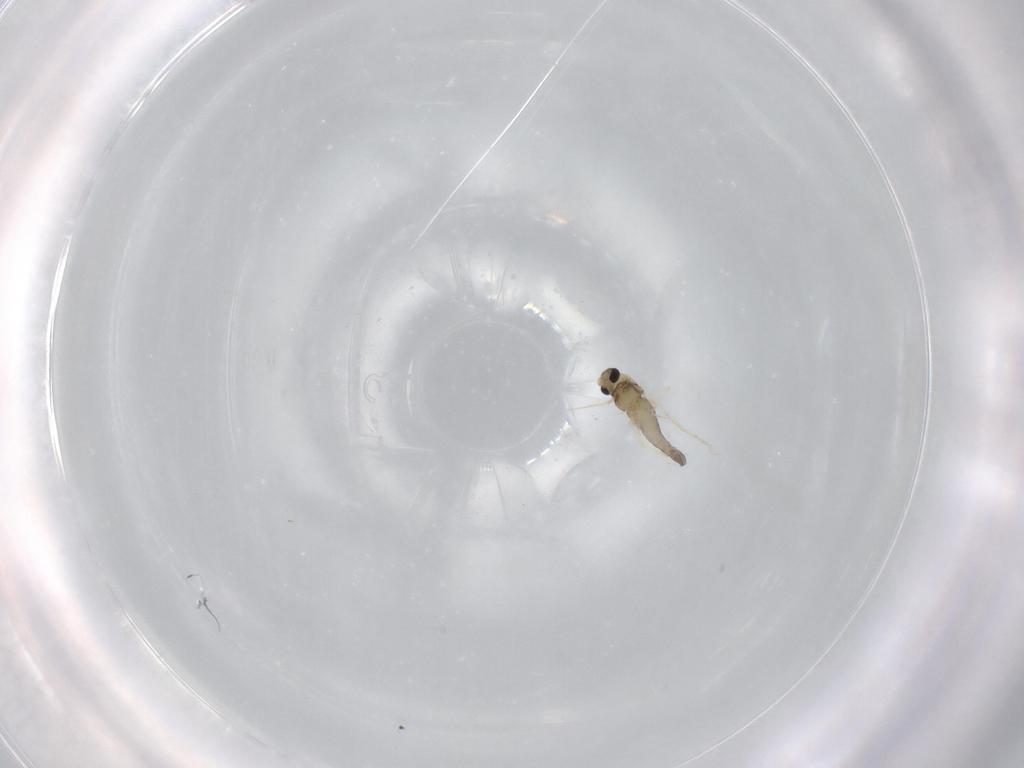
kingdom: Animalia
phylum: Arthropoda
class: Insecta
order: Diptera
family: Chironomidae
